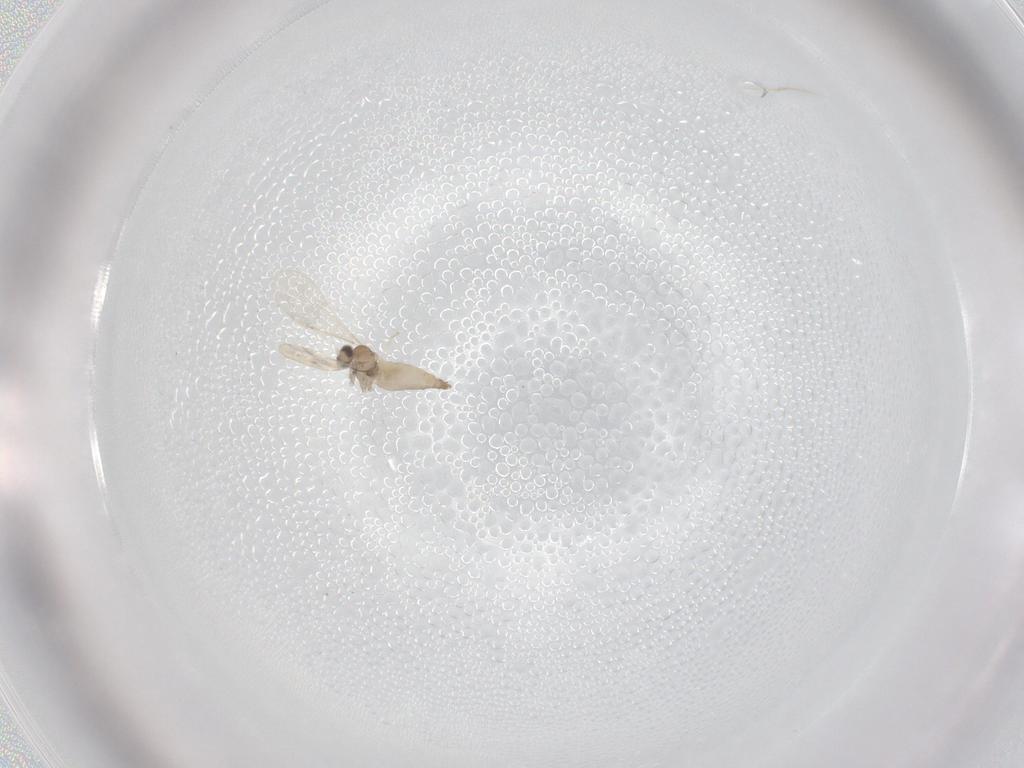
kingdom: Animalia
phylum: Arthropoda
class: Insecta
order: Diptera
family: Cecidomyiidae
